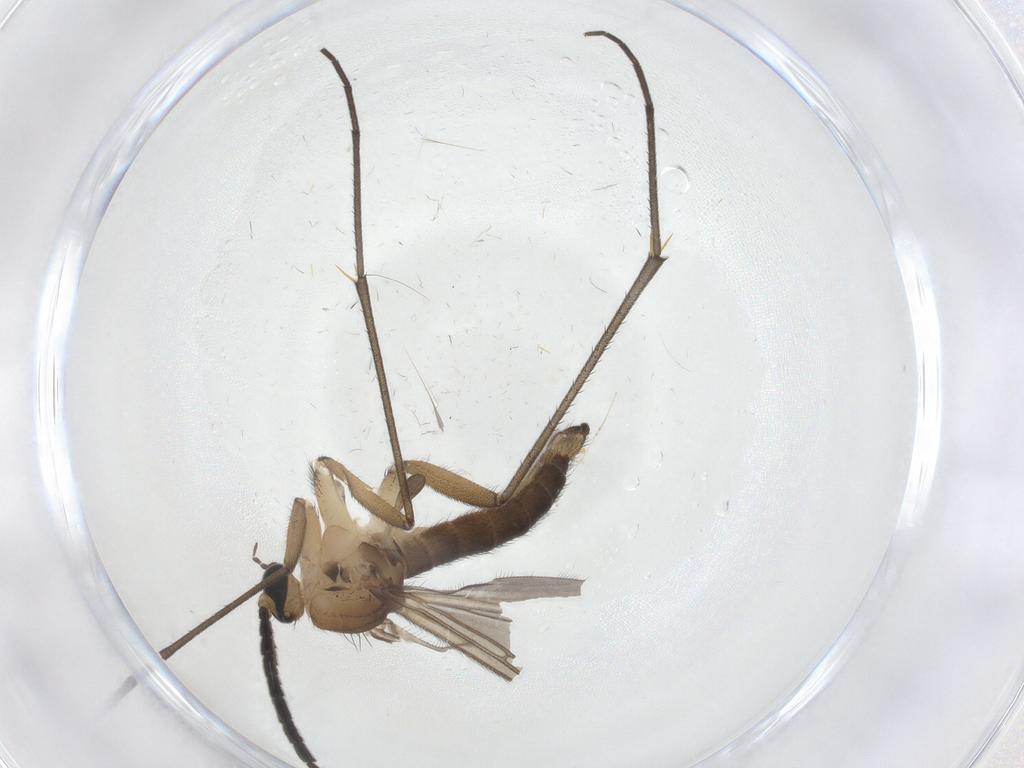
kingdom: Animalia
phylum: Arthropoda
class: Insecta
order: Diptera
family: Sciaridae
